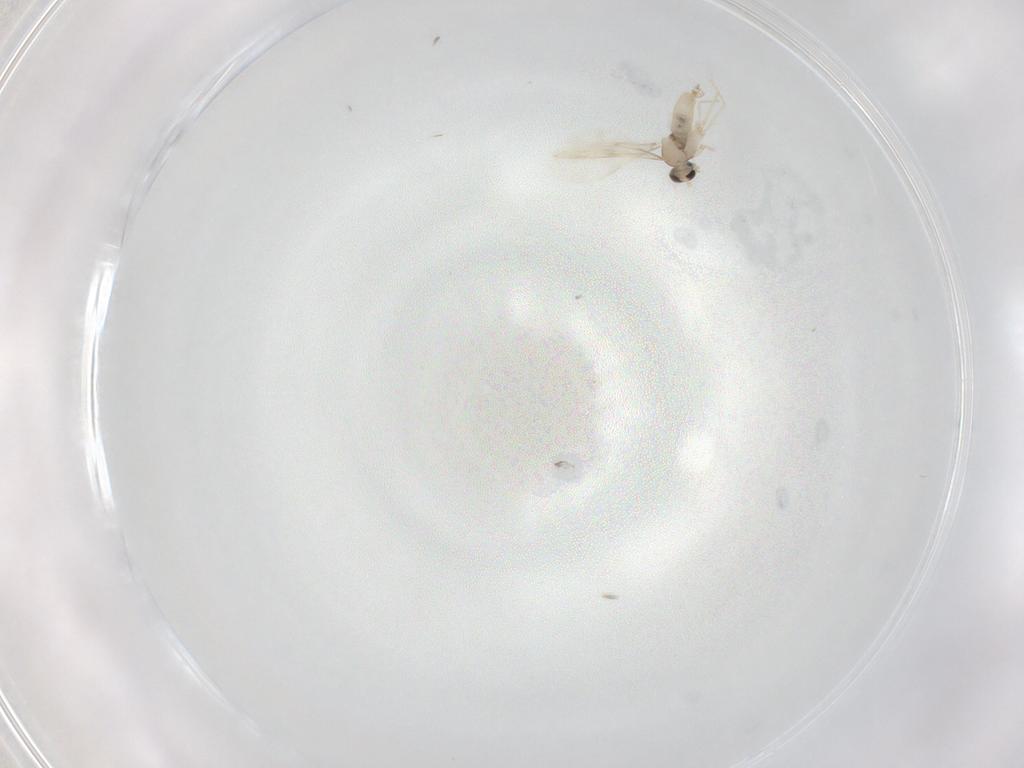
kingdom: Animalia
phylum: Arthropoda
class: Insecta
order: Diptera
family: Cecidomyiidae
